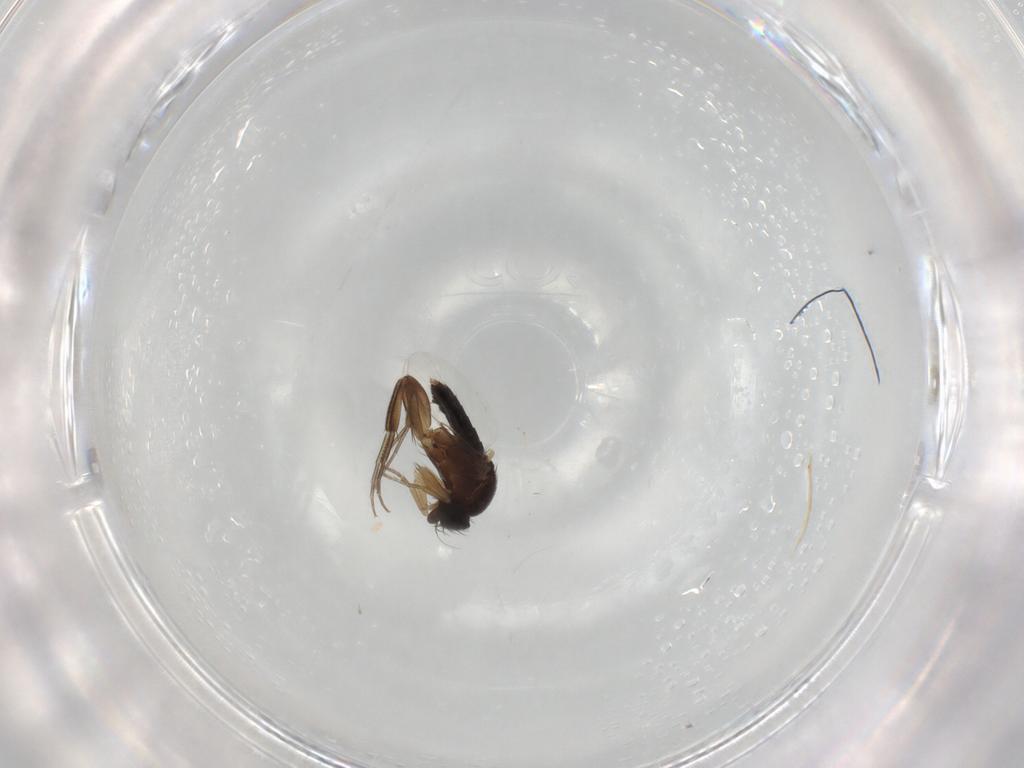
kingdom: Animalia
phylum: Arthropoda
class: Insecta
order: Diptera
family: Phoridae
